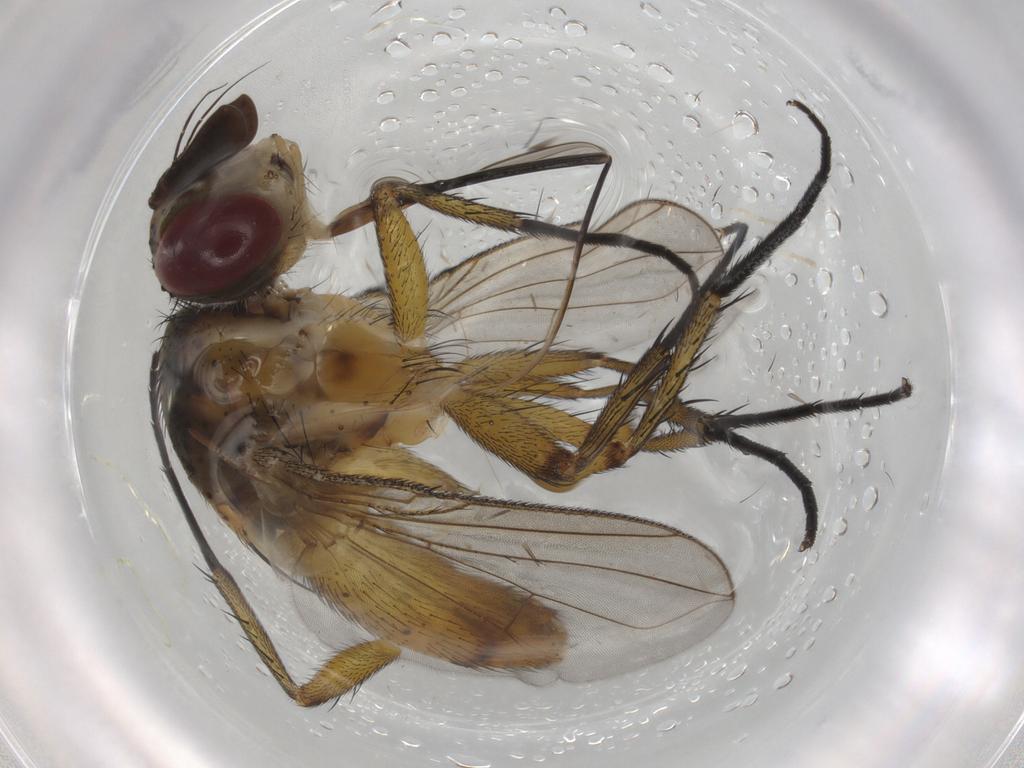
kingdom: Animalia
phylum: Arthropoda
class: Insecta
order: Diptera
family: Tachinidae
